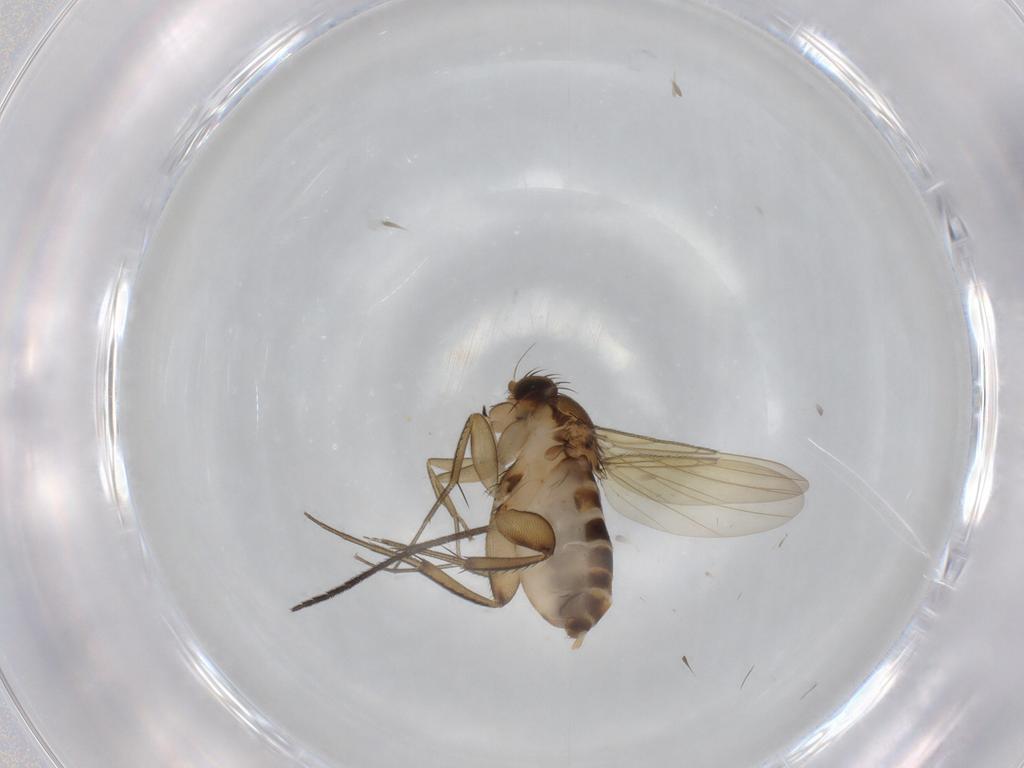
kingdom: Animalia
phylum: Arthropoda
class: Insecta
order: Diptera
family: Phoridae
